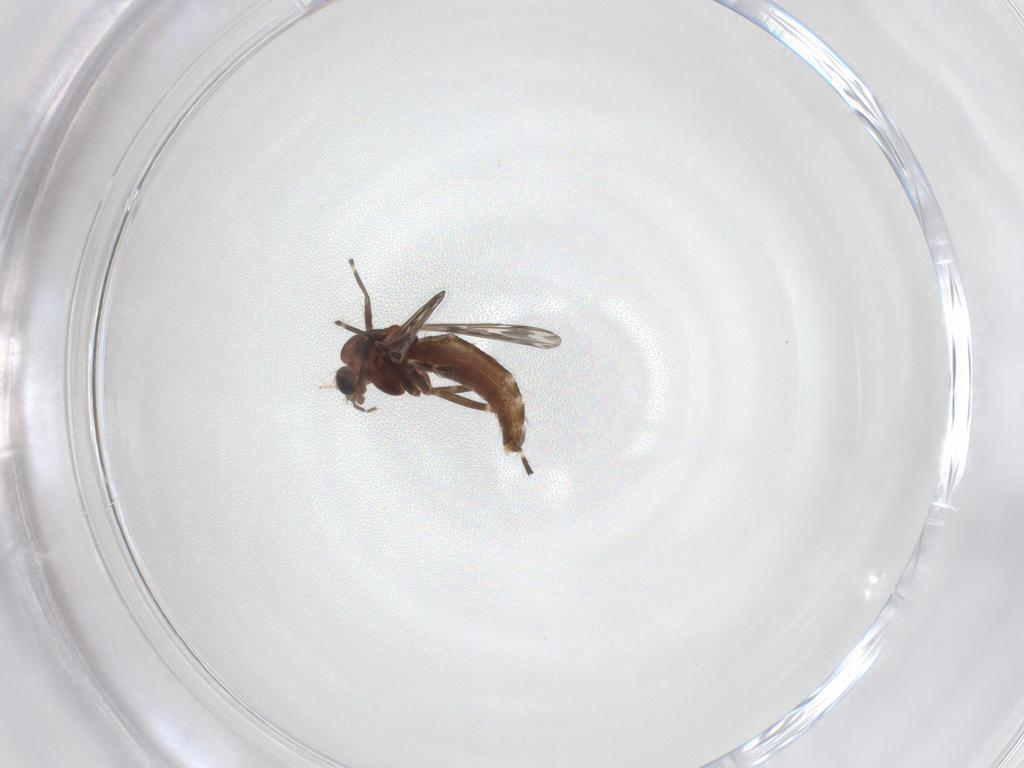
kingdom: Animalia
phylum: Arthropoda
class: Insecta
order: Diptera
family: Chironomidae
